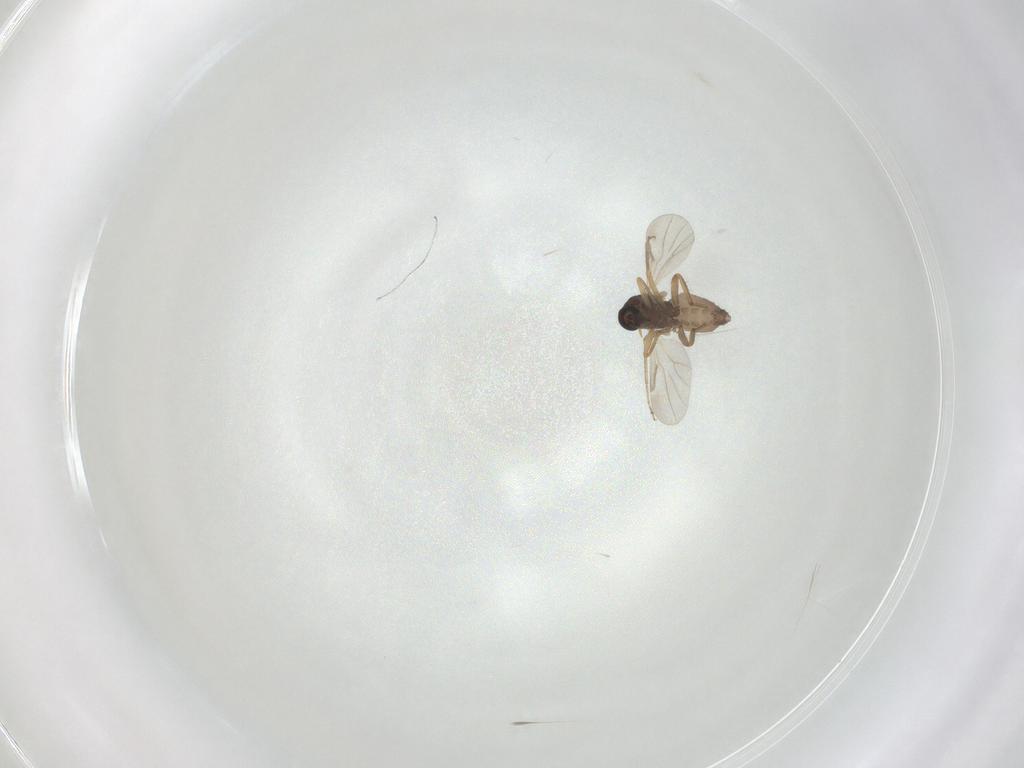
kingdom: Animalia
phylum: Arthropoda
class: Insecta
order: Diptera
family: Ceratopogonidae
